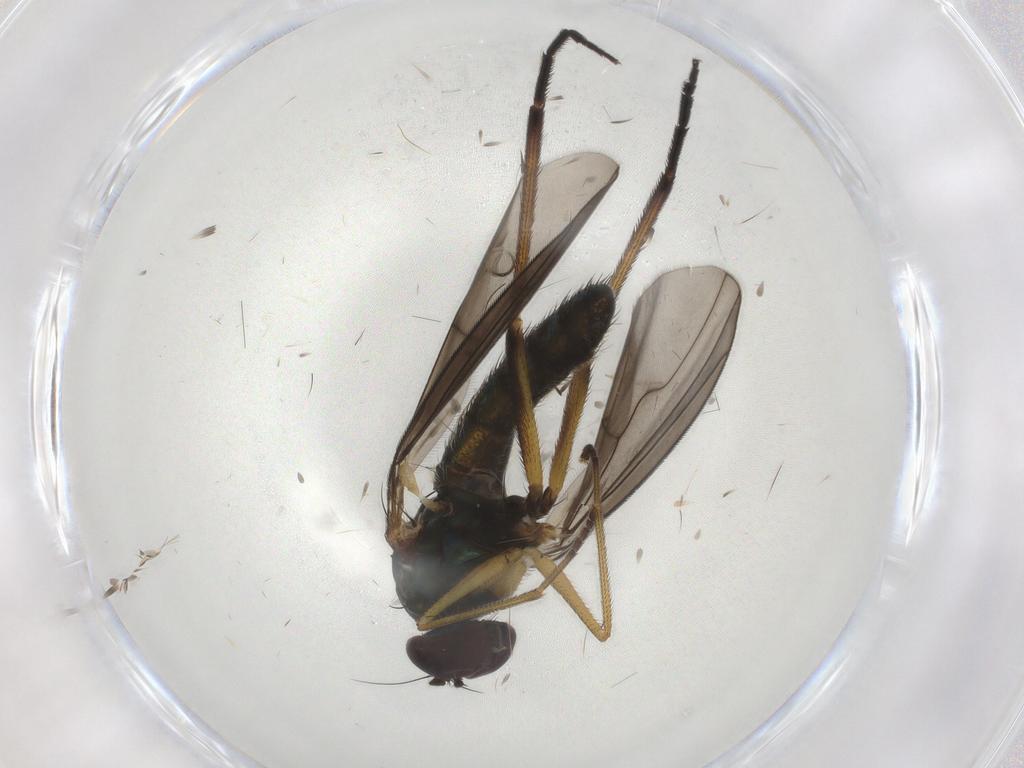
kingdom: Animalia
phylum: Arthropoda
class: Insecta
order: Diptera
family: Dolichopodidae
